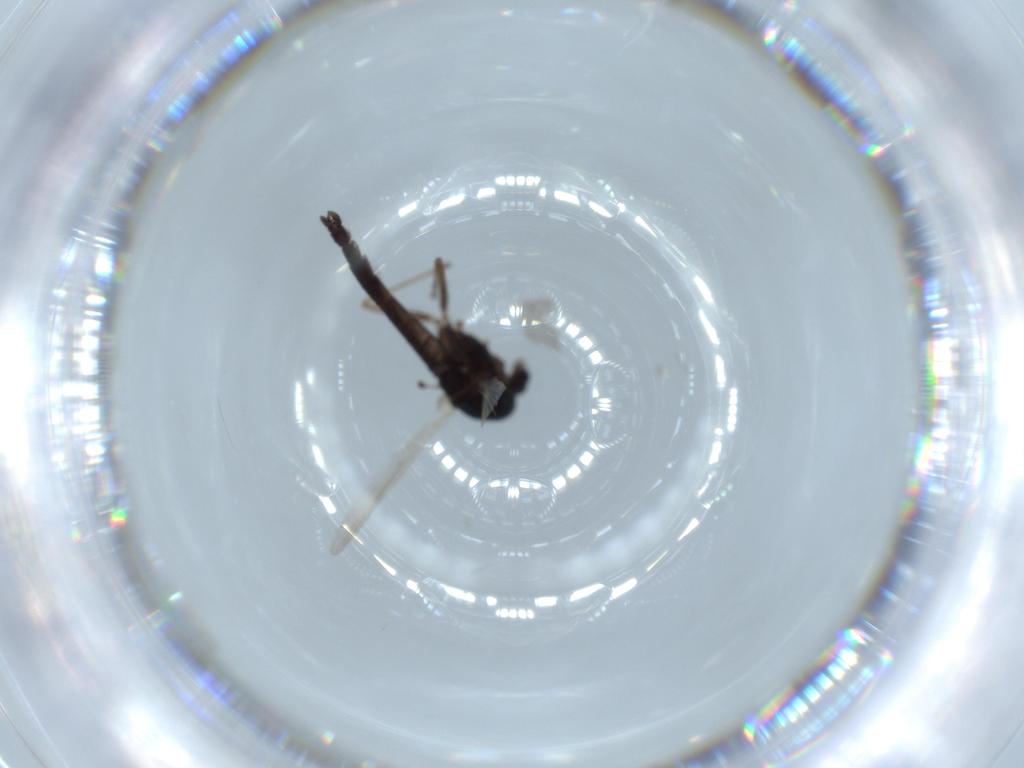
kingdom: Animalia
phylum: Arthropoda
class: Insecta
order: Diptera
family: Chironomidae
